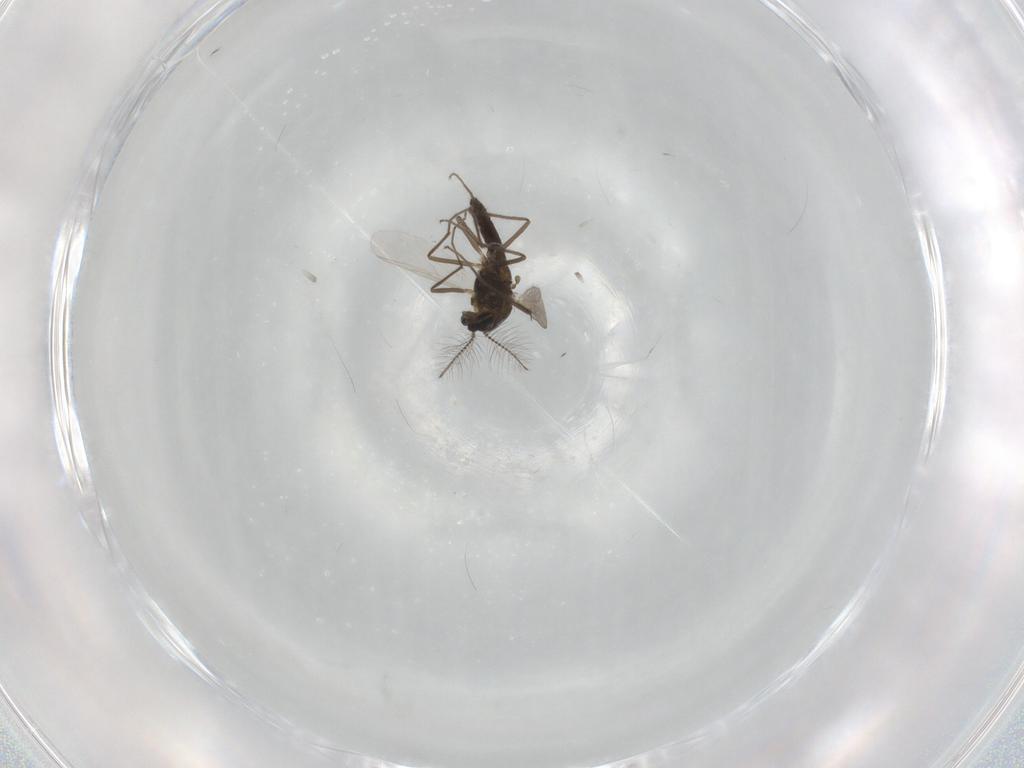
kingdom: Animalia
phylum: Arthropoda
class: Insecta
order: Diptera
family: Chironomidae
